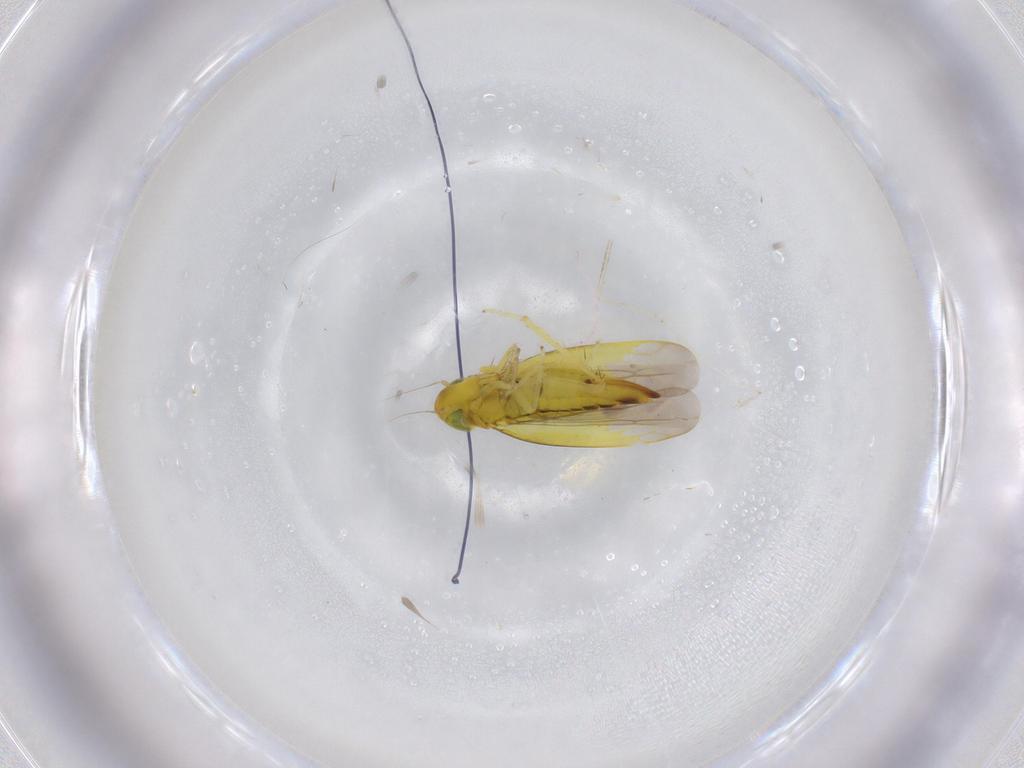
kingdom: Animalia
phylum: Arthropoda
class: Insecta
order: Hemiptera
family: Cicadellidae
